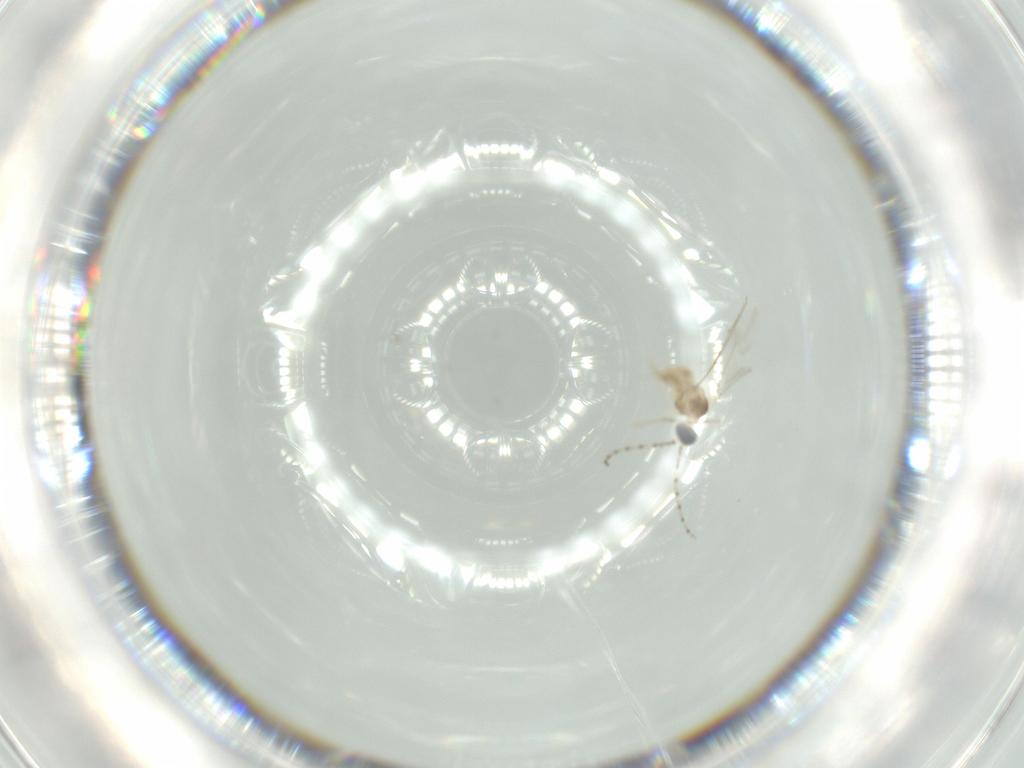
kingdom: Animalia
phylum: Arthropoda
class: Insecta
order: Diptera
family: Cecidomyiidae
